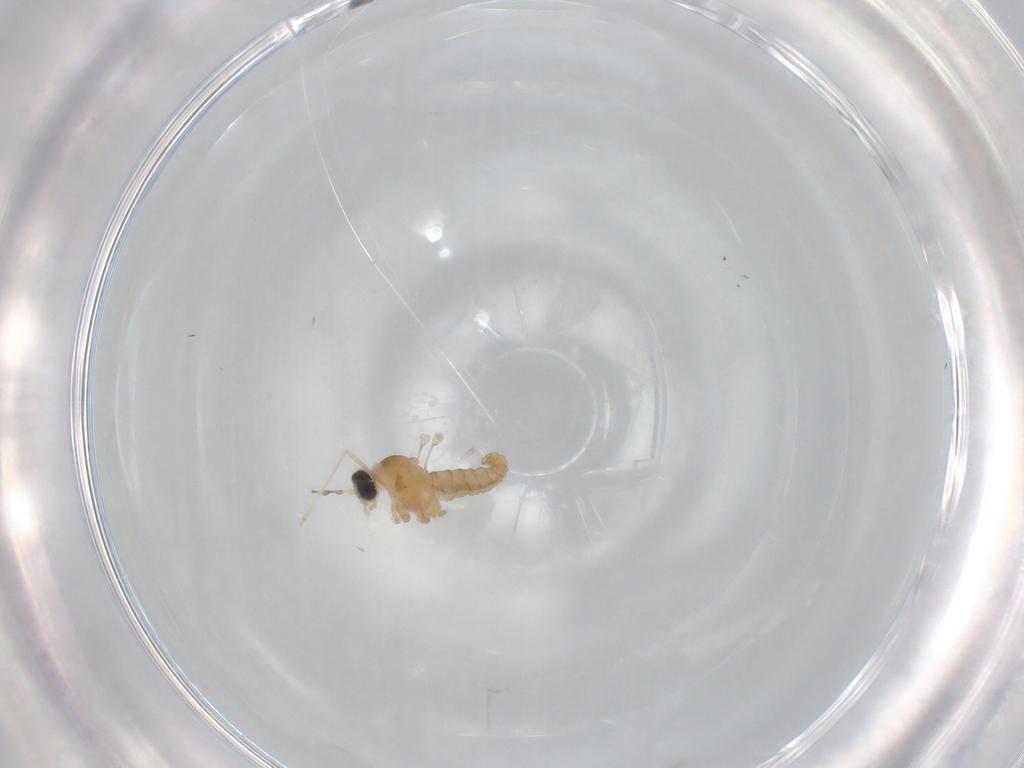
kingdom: Animalia
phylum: Arthropoda
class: Insecta
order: Diptera
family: Lauxaniidae
